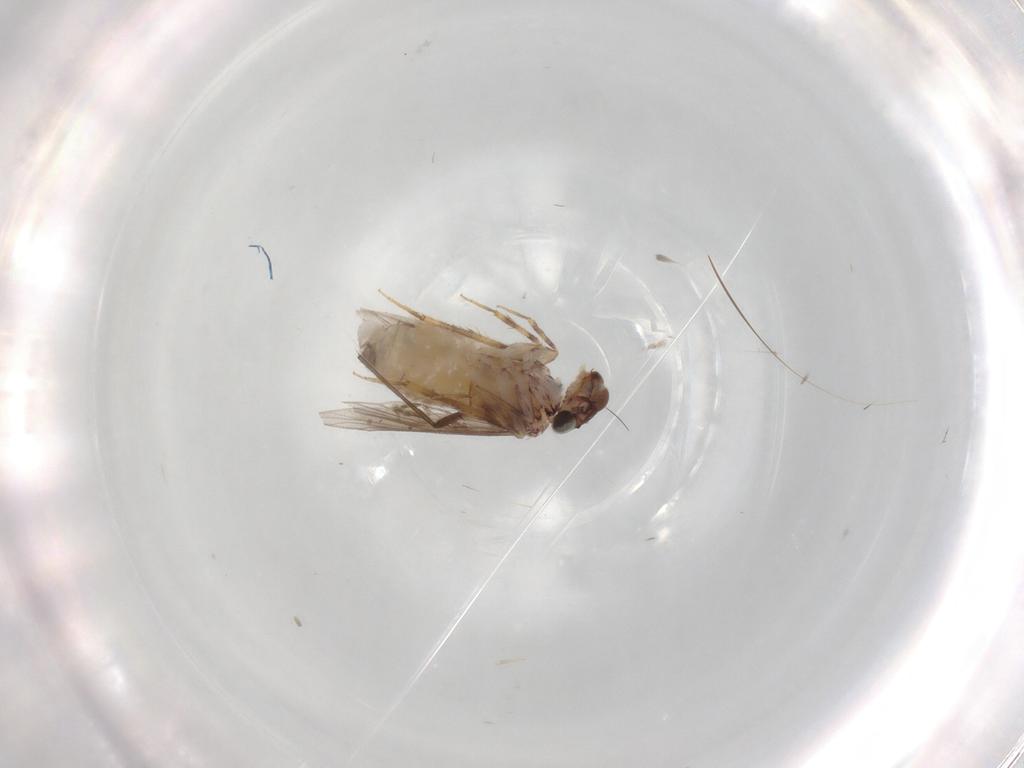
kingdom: Animalia
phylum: Arthropoda
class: Insecta
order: Psocodea
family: Lepidopsocidae
